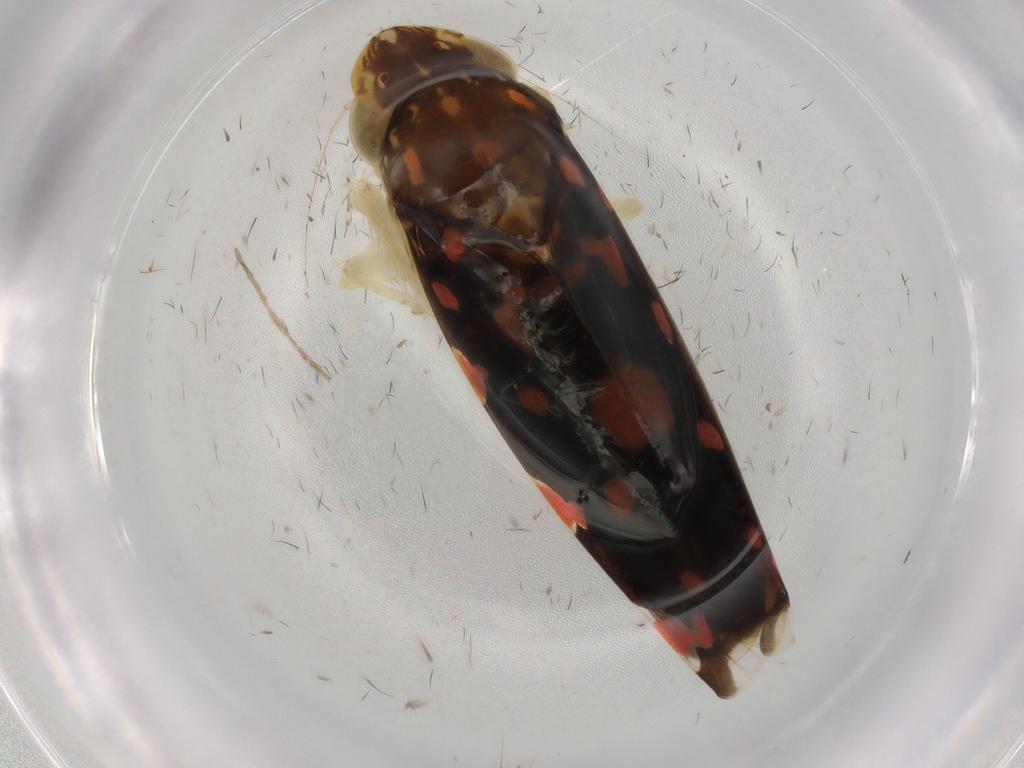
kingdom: Animalia
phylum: Arthropoda
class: Insecta
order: Hemiptera
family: Cicadellidae
